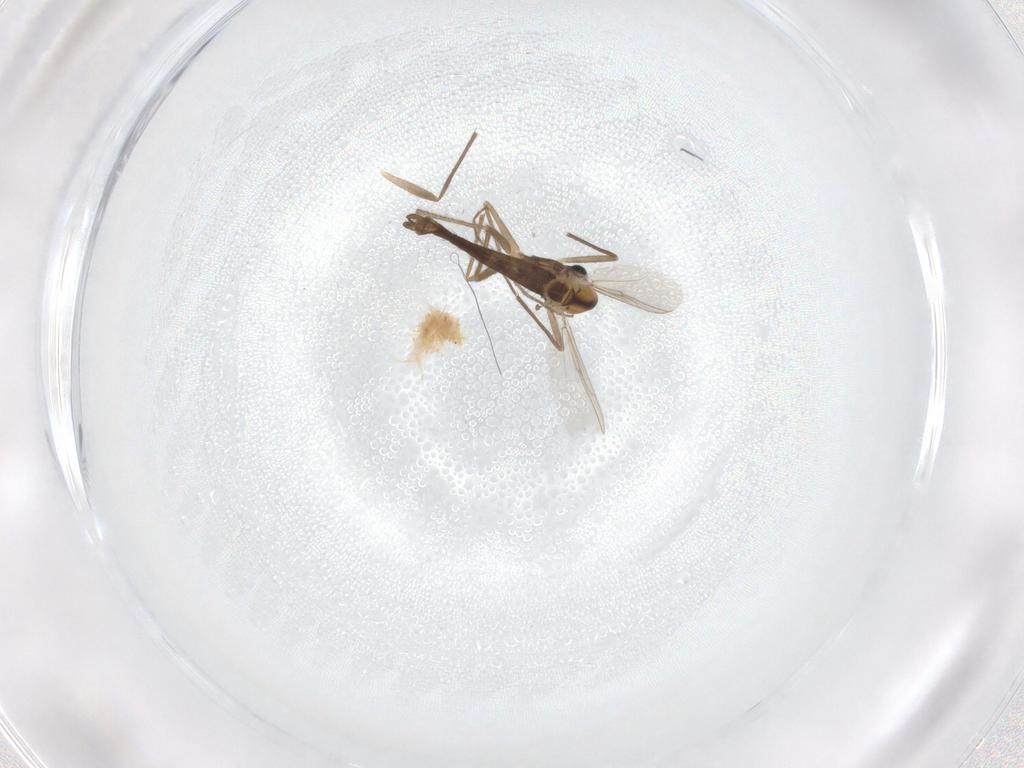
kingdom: Animalia
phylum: Arthropoda
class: Insecta
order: Diptera
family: Chironomidae
